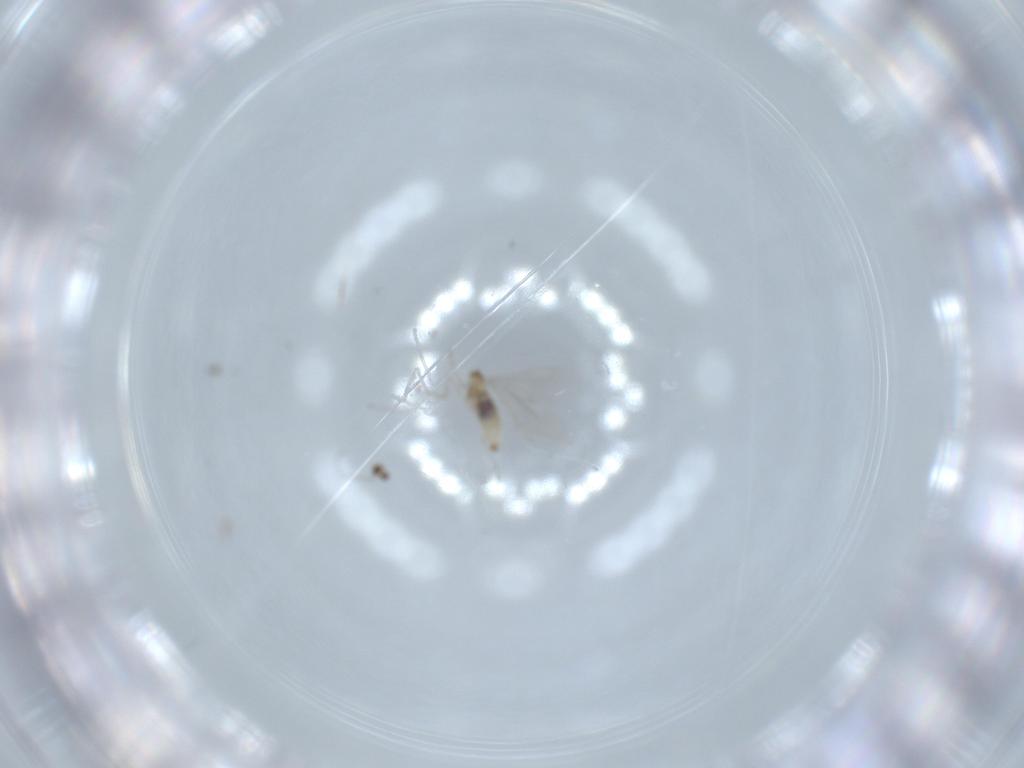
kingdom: Animalia
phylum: Arthropoda
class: Insecta
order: Diptera
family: Cecidomyiidae
